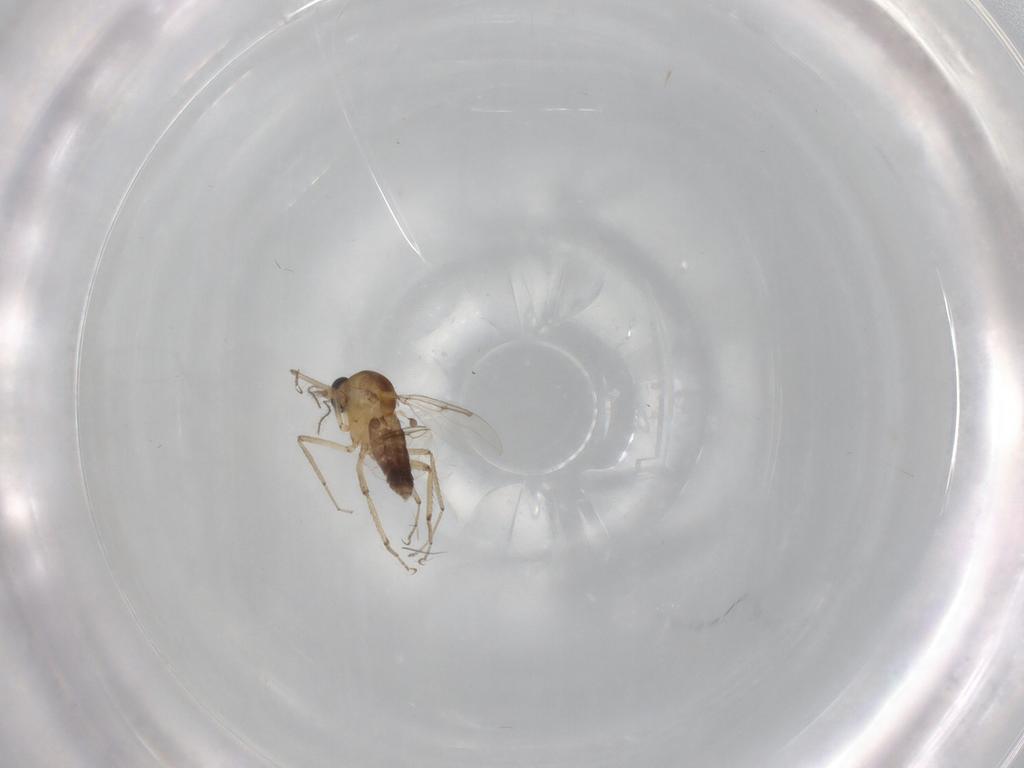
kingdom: Animalia
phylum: Arthropoda
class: Insecta
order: Diptera
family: Ceratopogonidae
